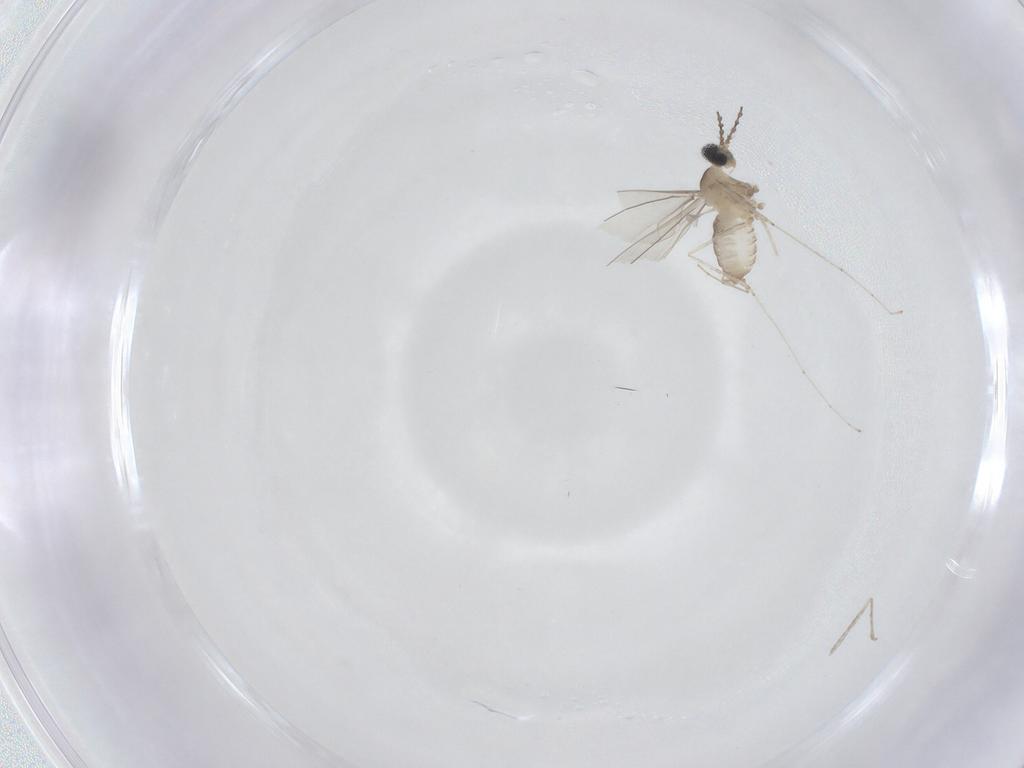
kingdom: Animalia
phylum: Arthropoda
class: Insecta
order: Diptera
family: Cecidomyiidae
